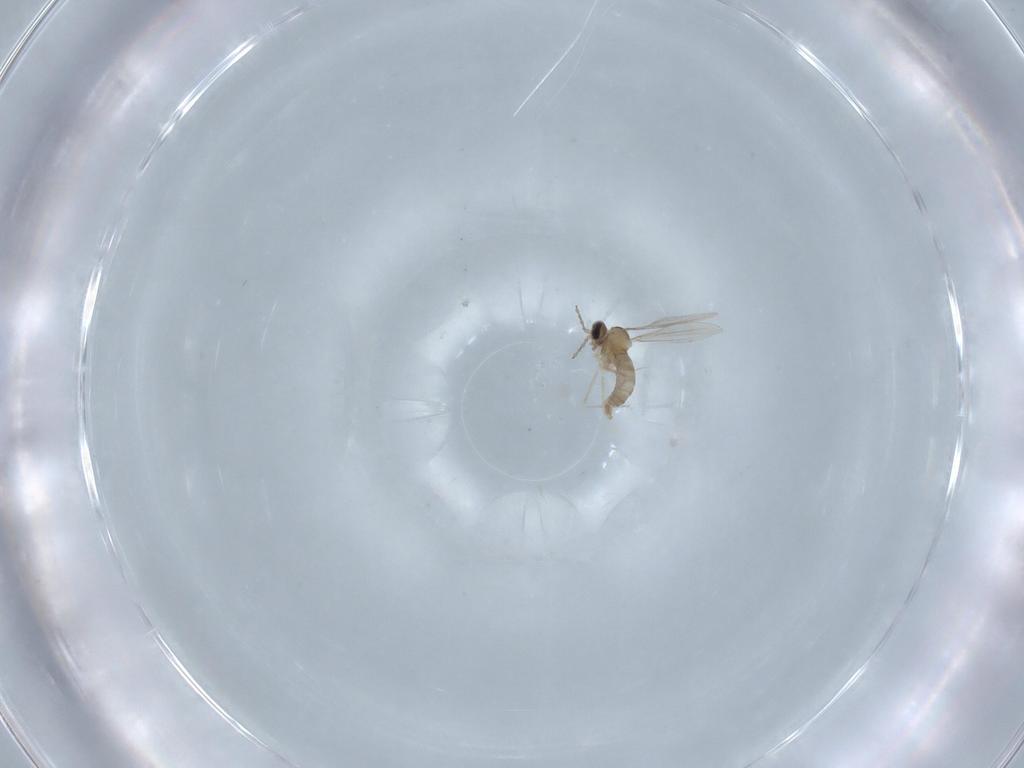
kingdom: Animalia
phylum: Arthropoda
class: Insecta
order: Diptera
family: Cecidomyiidae
